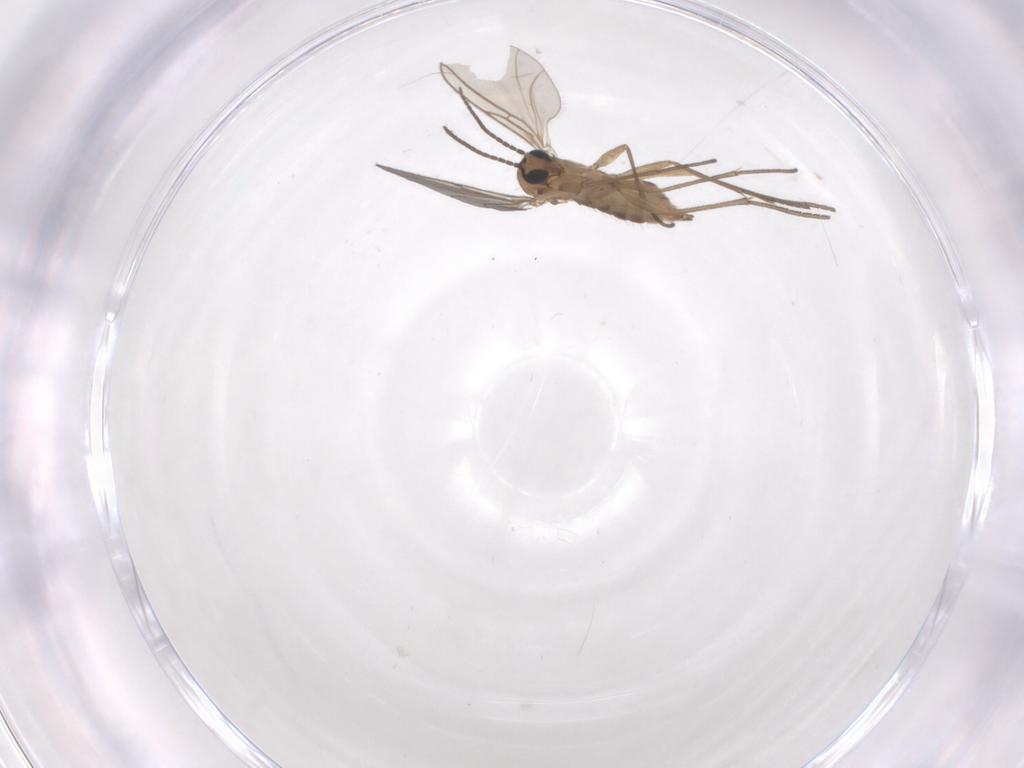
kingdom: Animalia
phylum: Arthropoda
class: Insecta
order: Diptera
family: Sciaridae
